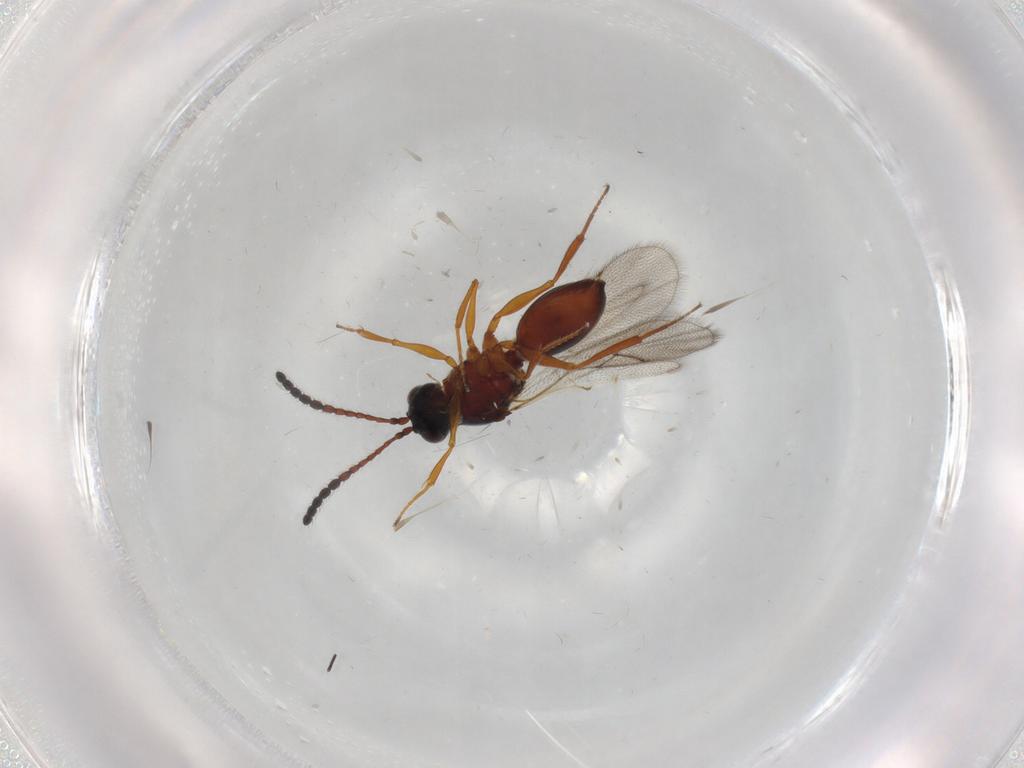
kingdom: Animalia
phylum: Arthropoda
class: Insecta
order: Hymenoptera
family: Figitidae
